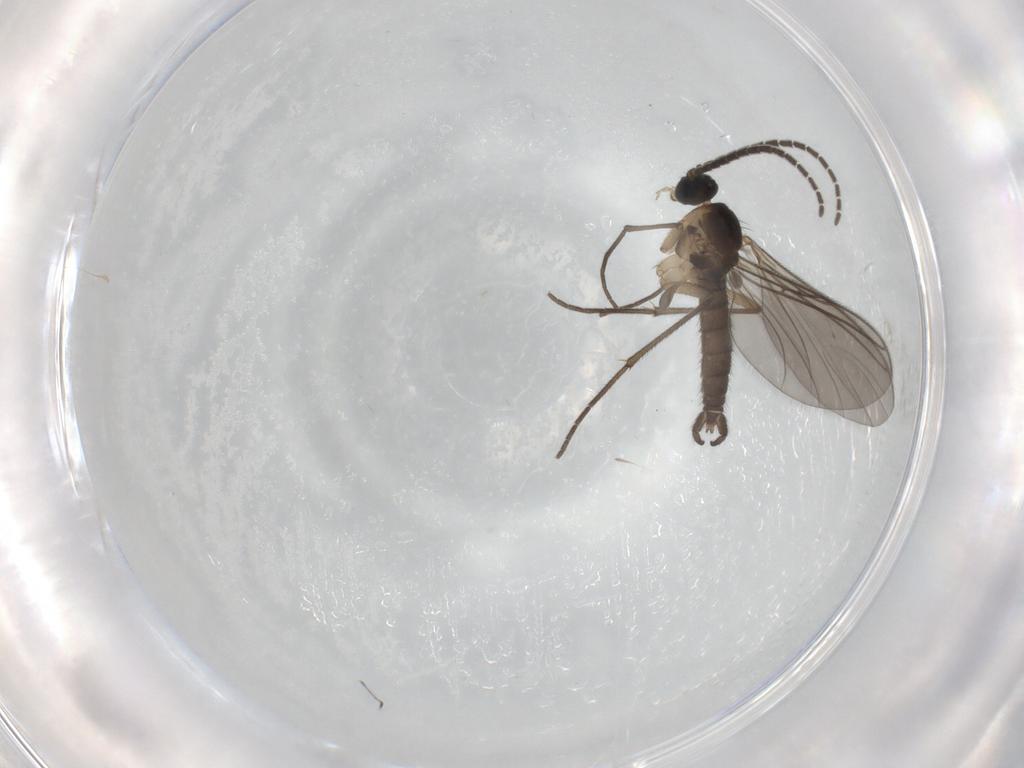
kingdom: Animalia
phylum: Arthropoda
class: Insecta
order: Diptera
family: Sciaridae
